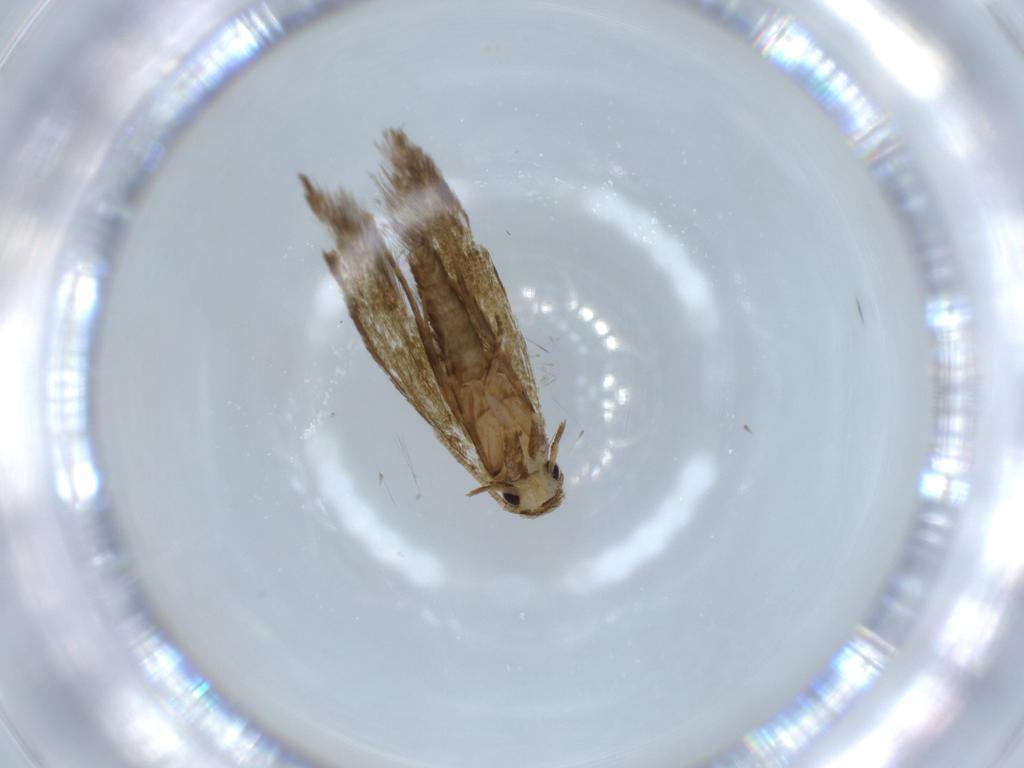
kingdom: Animalia
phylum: Arthropoda
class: Insecta
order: Lepidoptera
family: Tineidae
